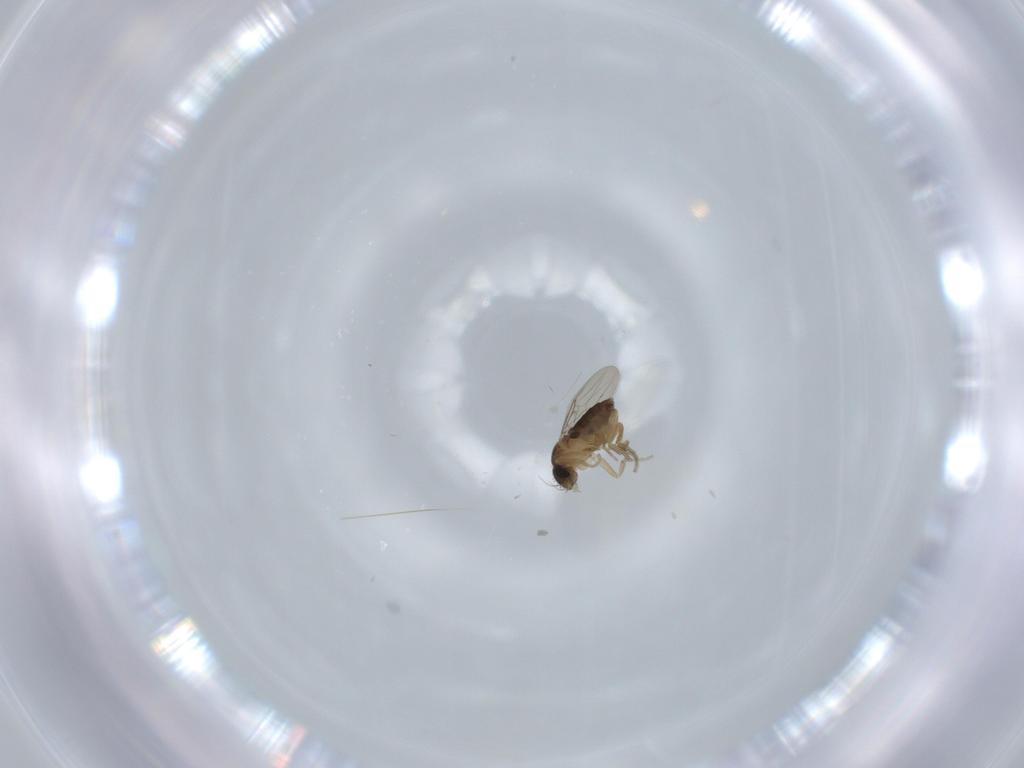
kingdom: Animalia
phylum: Arthropoda
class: Insecta
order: Diptera
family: Phoridae
